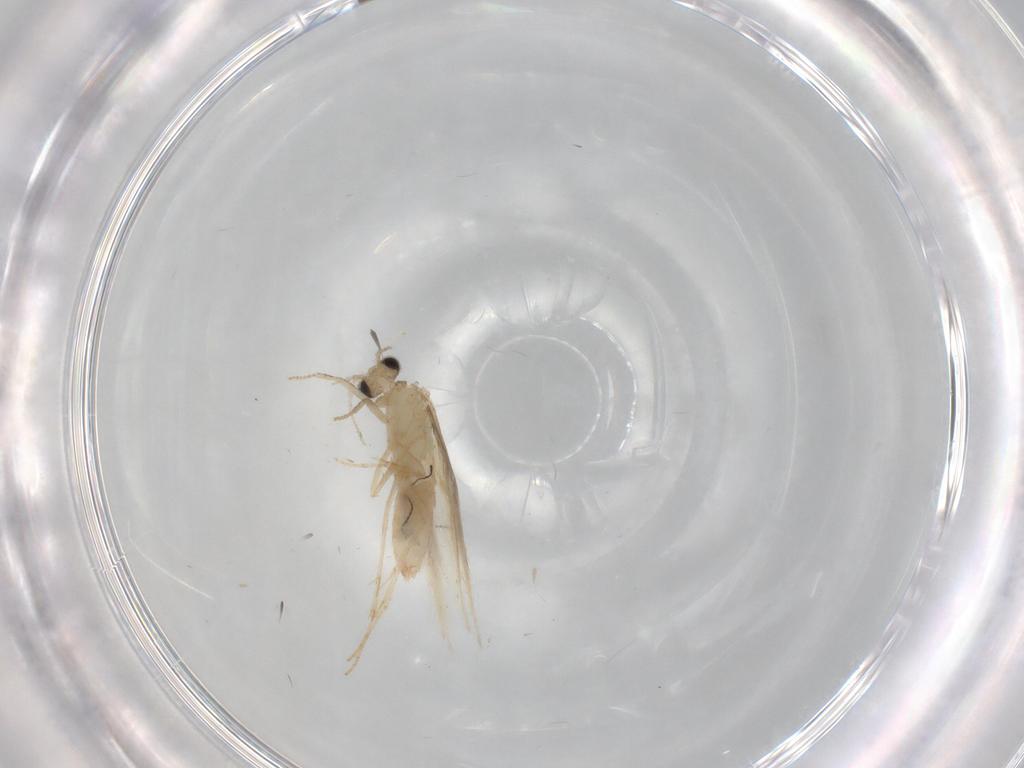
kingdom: Animalia
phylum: Arthropoda
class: Insecta
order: Trichoptera
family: Hydroptilidae
